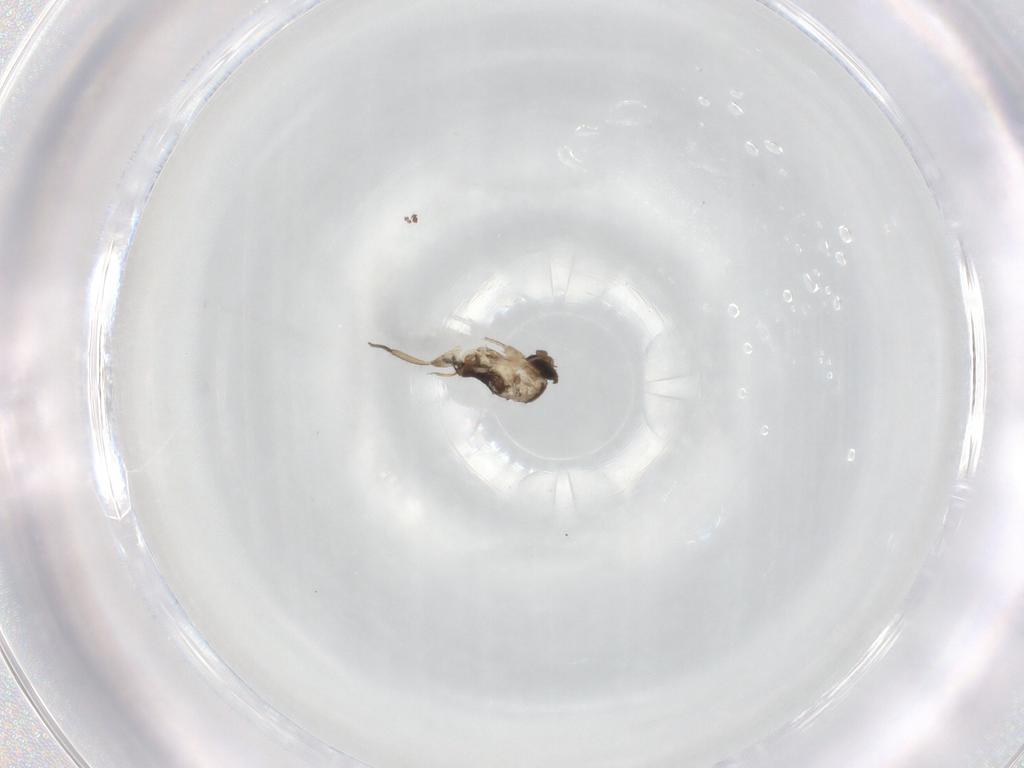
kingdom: Animalia
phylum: Arthropoda
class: Insecta
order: Diptera
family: Phoridae
